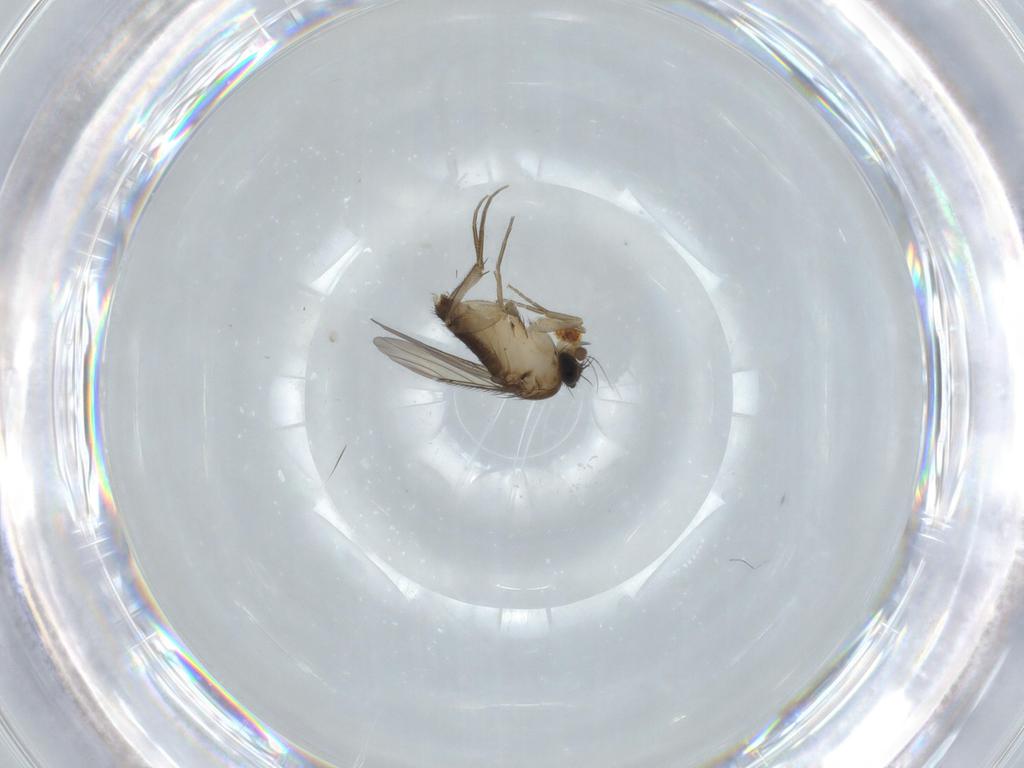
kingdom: Animalia
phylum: Arthropoda
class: Insecta
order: Diptera
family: Phoridae
